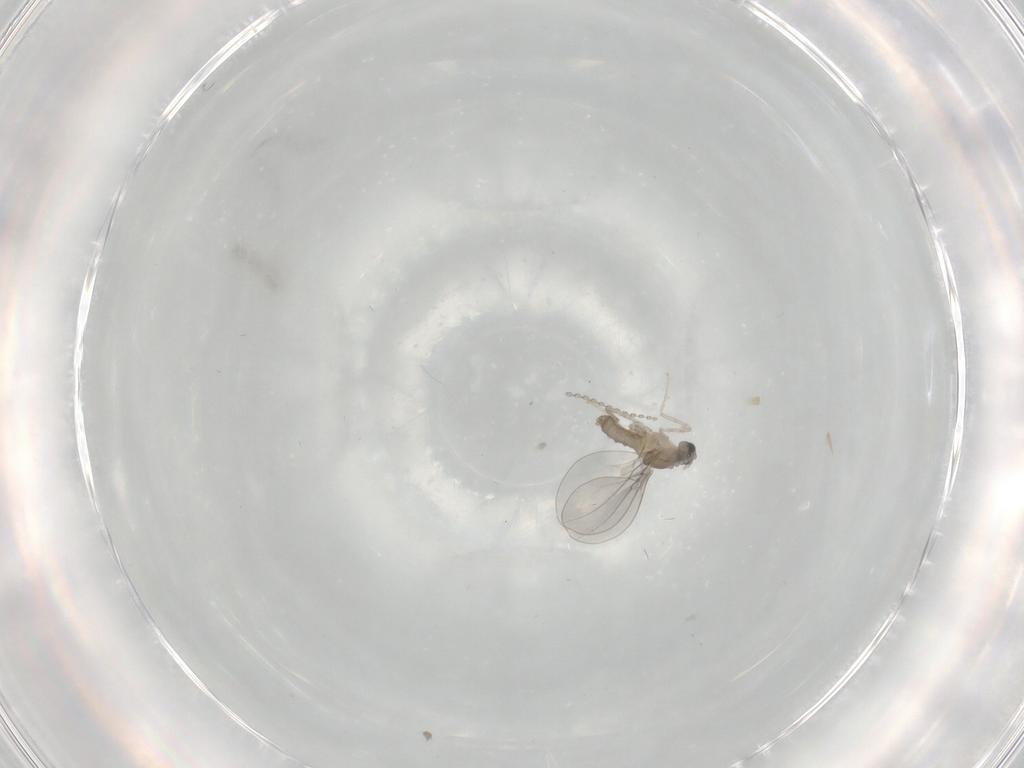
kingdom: Animalia
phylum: Arthropoda
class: Insecta
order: Diptera
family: Cecidomyiidae
